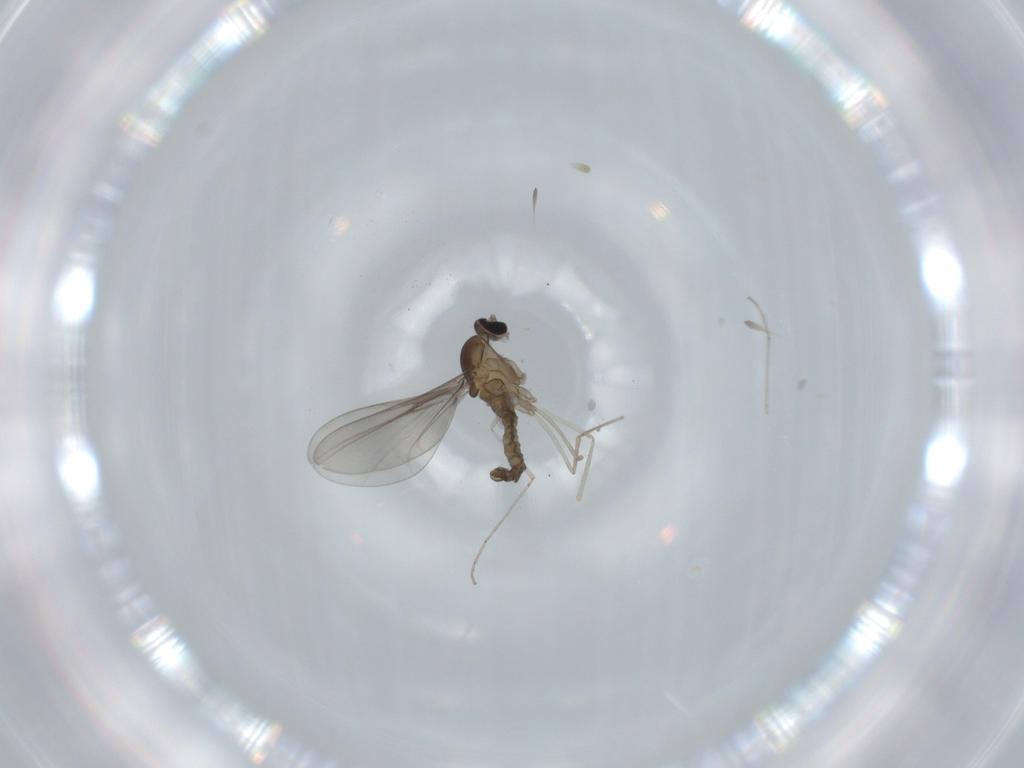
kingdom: Animalia
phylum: Arthropoda
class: Insecta
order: Diptera
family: Cecidomyiidae
